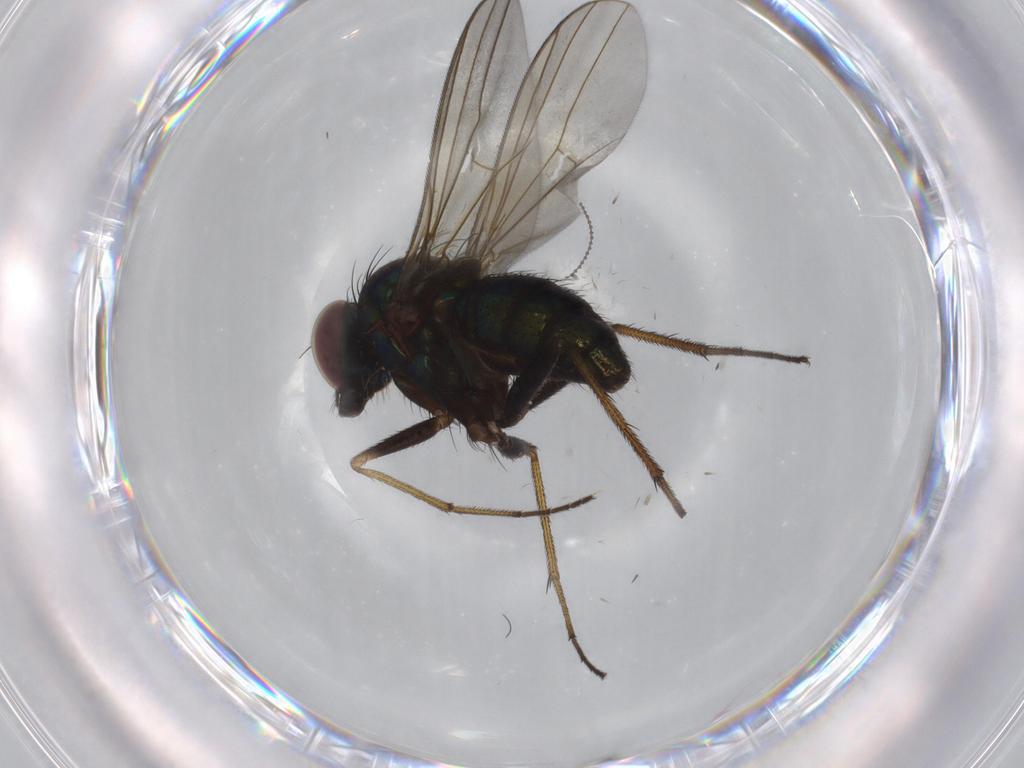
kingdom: Animalia
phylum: Arthropoda
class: Insecta
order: Diptera
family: Dolichopodidae
